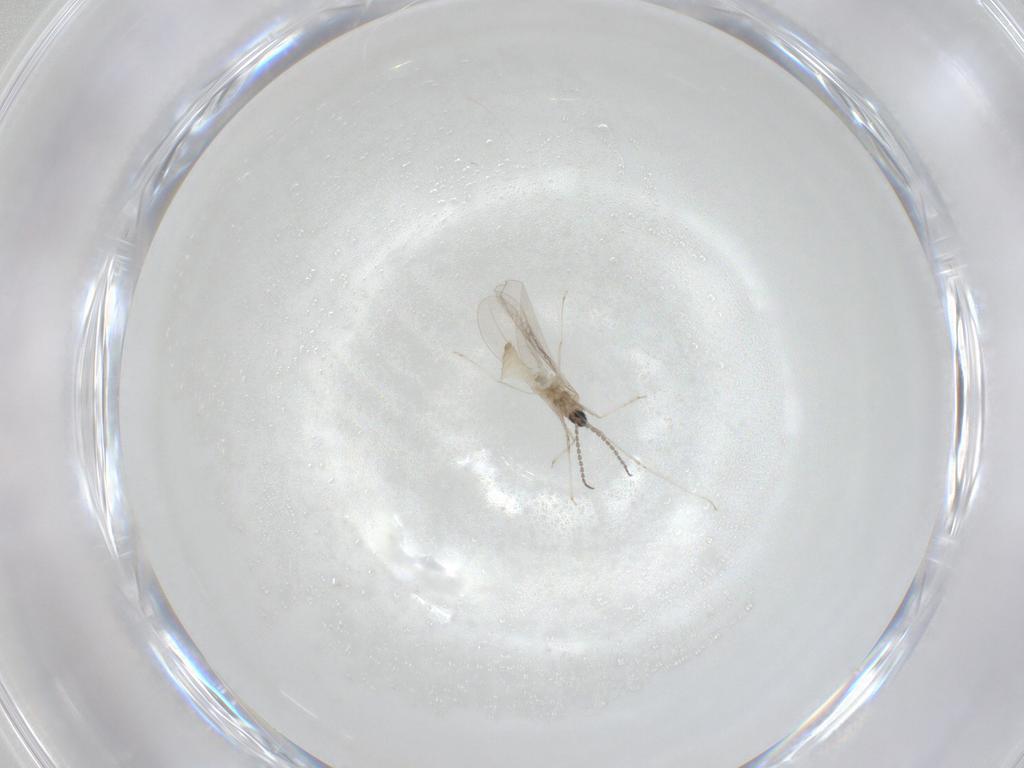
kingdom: Animalia
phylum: Arthropoda
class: Insecta
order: Diptera
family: Cecidomyiidae
